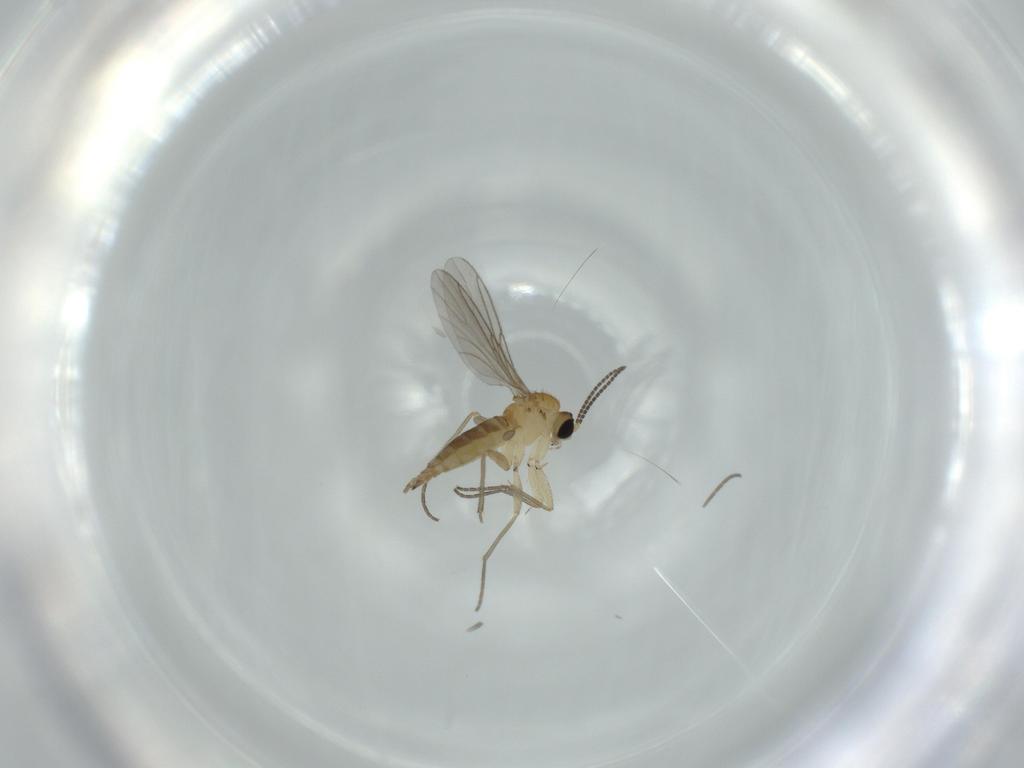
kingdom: Animalia
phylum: Arthropoda
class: Insecta
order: Diptera
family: Sciaridae
